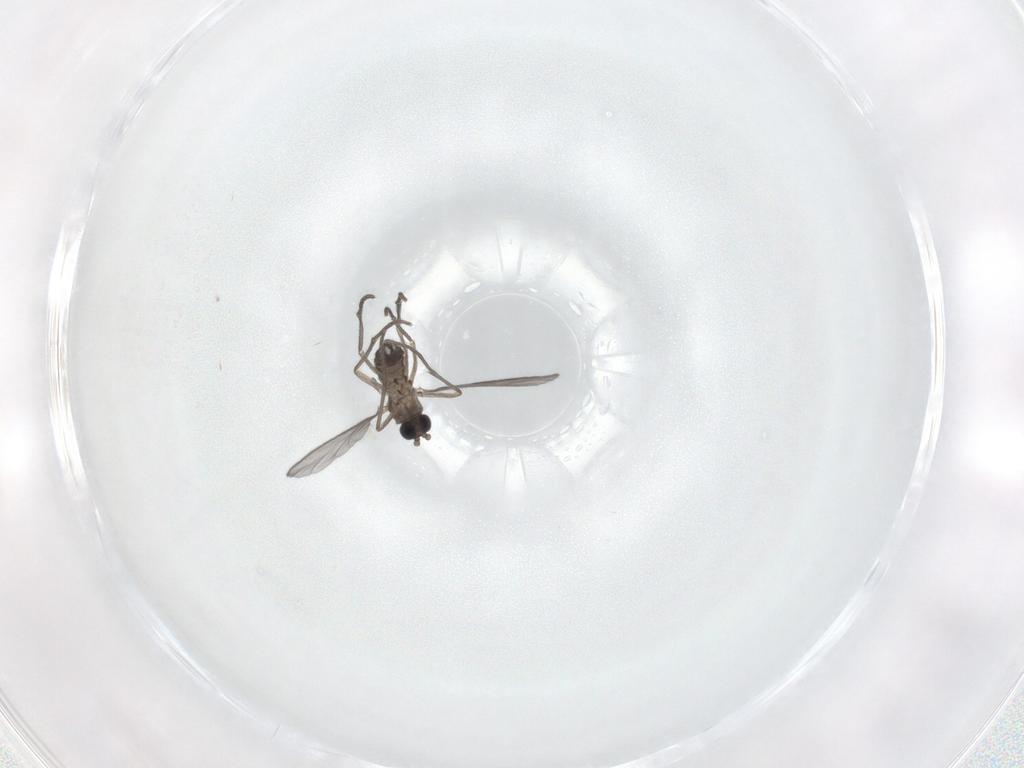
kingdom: Animalia
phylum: Arthropoda
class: Insecta
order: Diptera
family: Sciaridae
